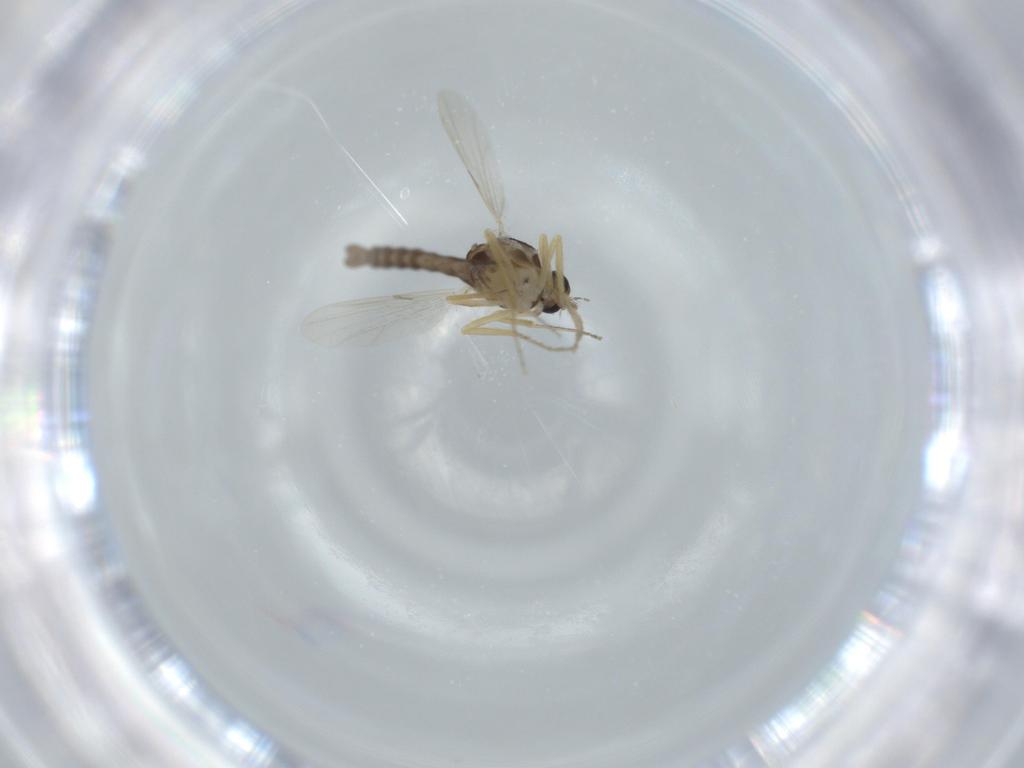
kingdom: Animalia
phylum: Arthropoda
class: Insecta
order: Diptera
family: Ceratopogonidae
